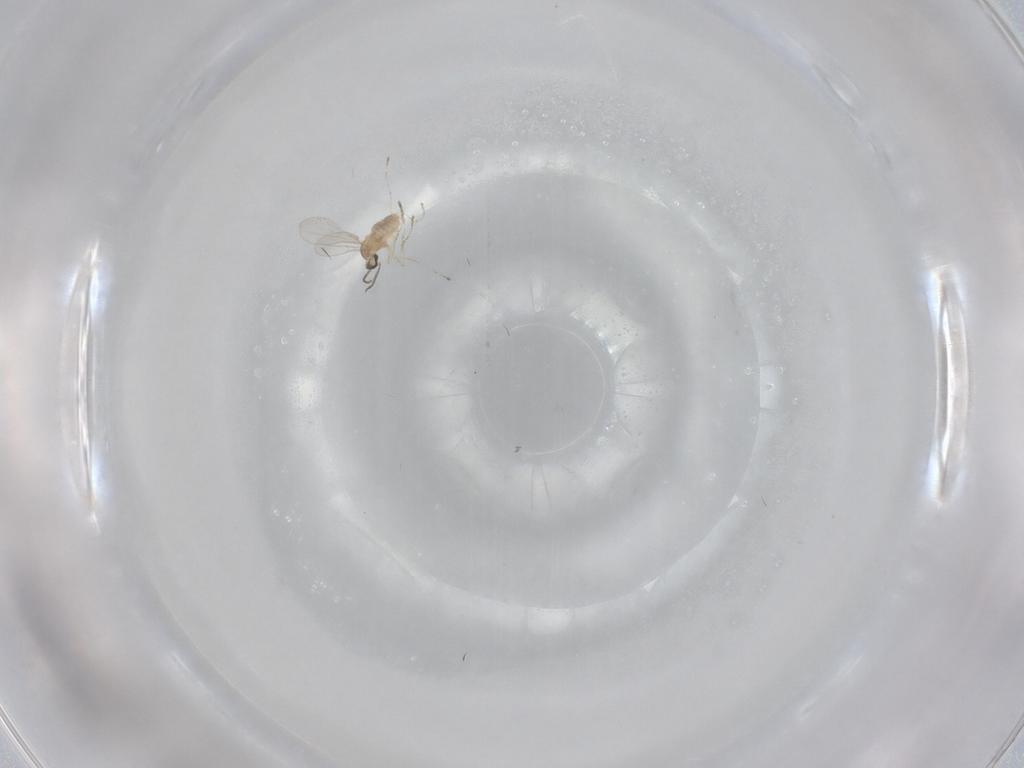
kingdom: Animalia
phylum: Arthropoda
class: Insecta
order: Diptera
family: Cecidomyiidae
